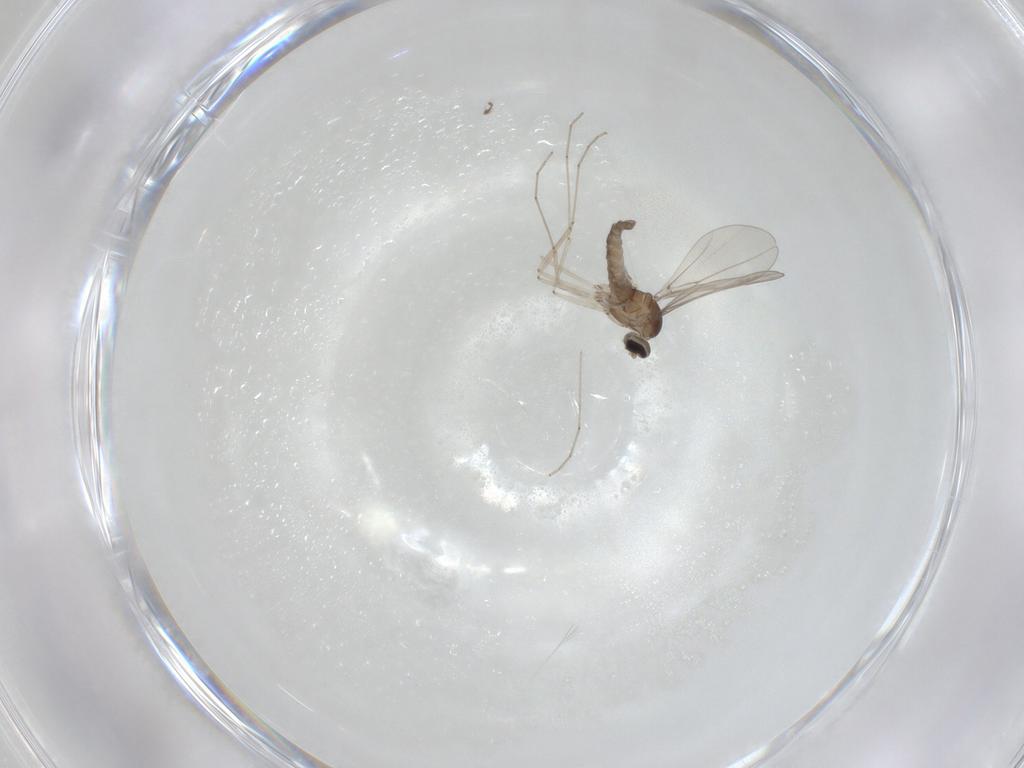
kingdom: Animalia
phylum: Arthropoda
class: Insecta
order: Diptera
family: Cecidomyiidae
